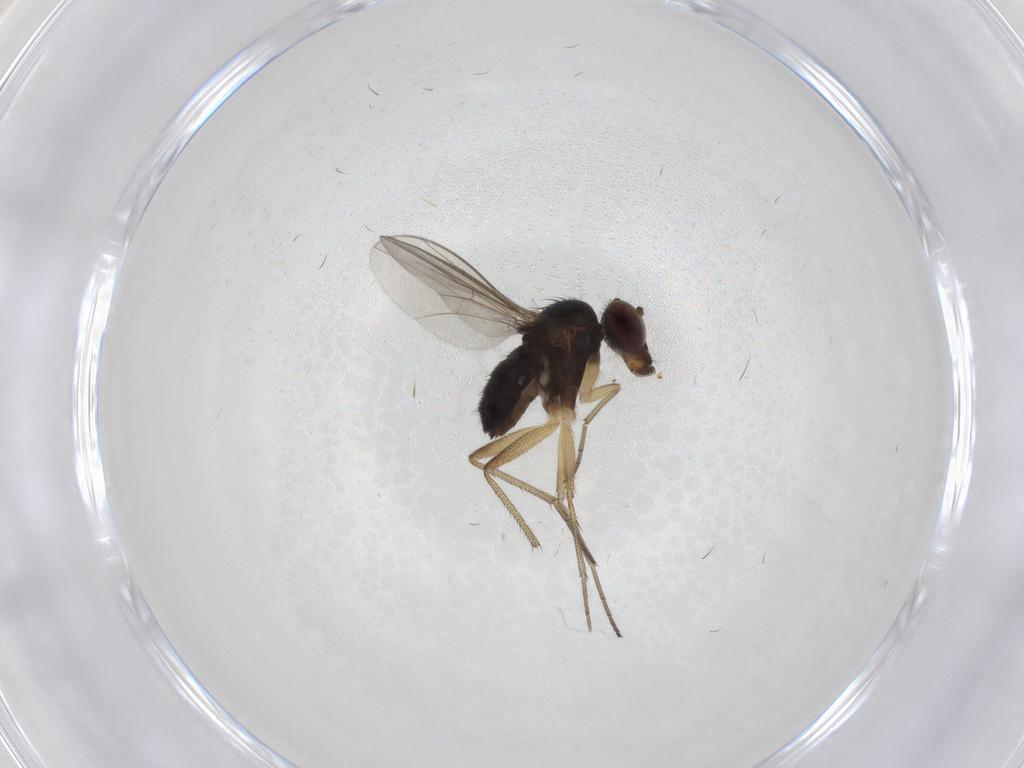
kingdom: Animalia
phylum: Arthropoda
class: Insecta
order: Diptera
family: Dolichopodidae
